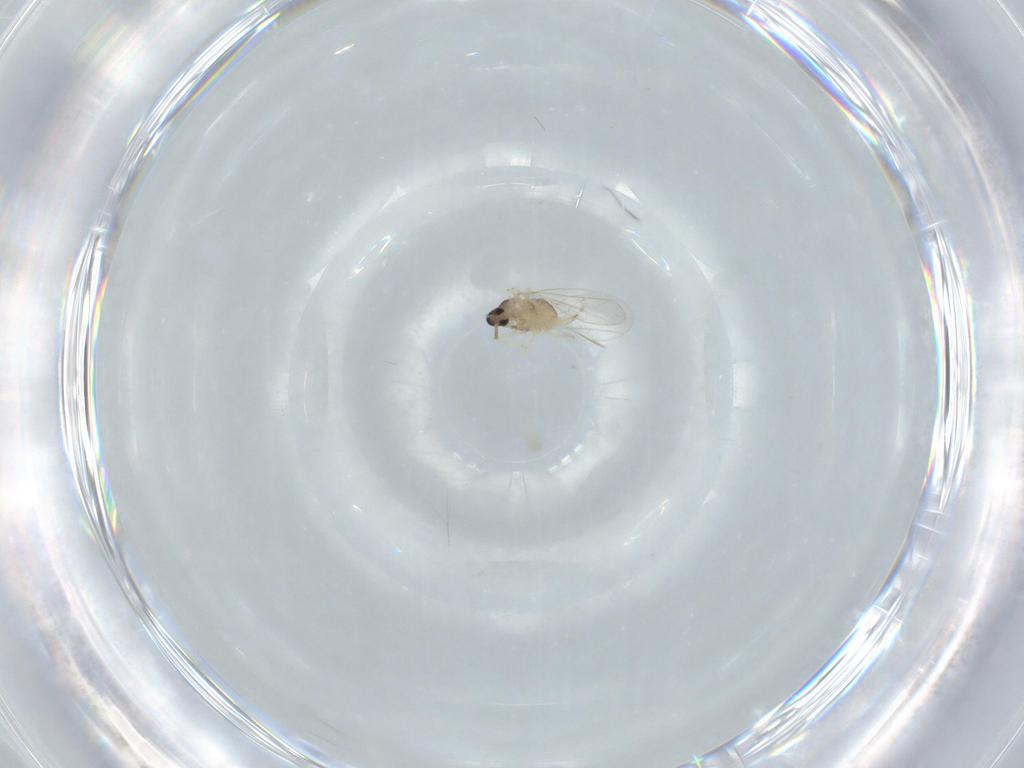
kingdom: Animalia
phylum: Arthropoda
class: Insecta
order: Diptera
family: Cecidomyiidae
